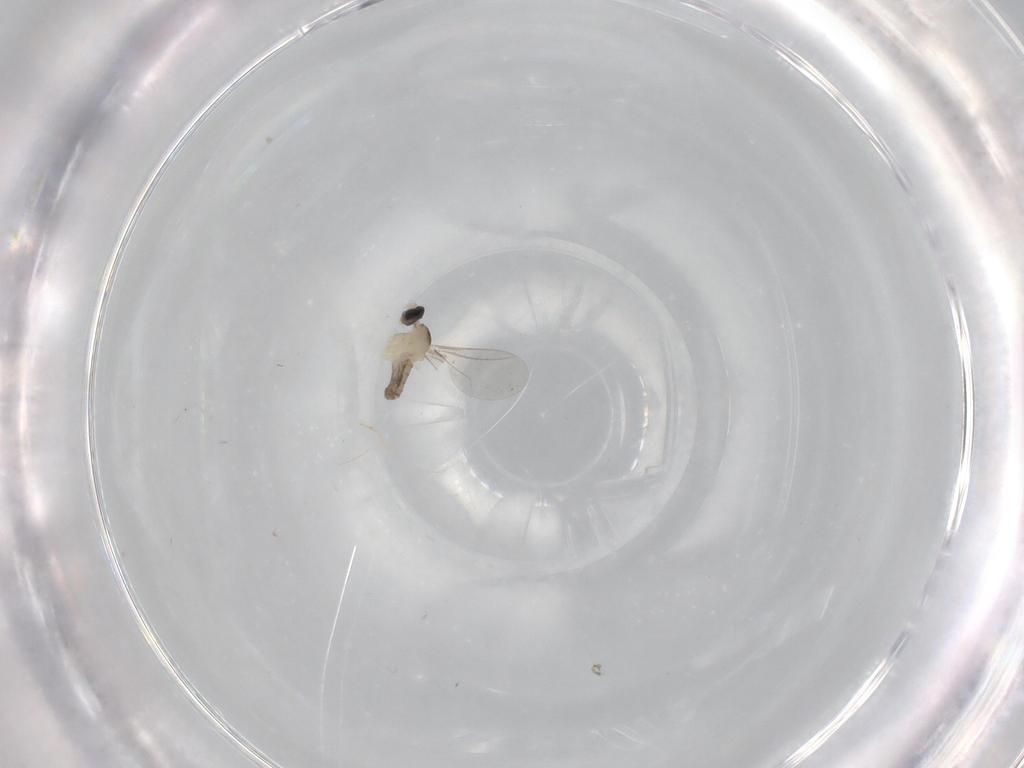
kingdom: Animalia
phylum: Arthropoda
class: Insecta
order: Diptera
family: Cecidomyiidae
